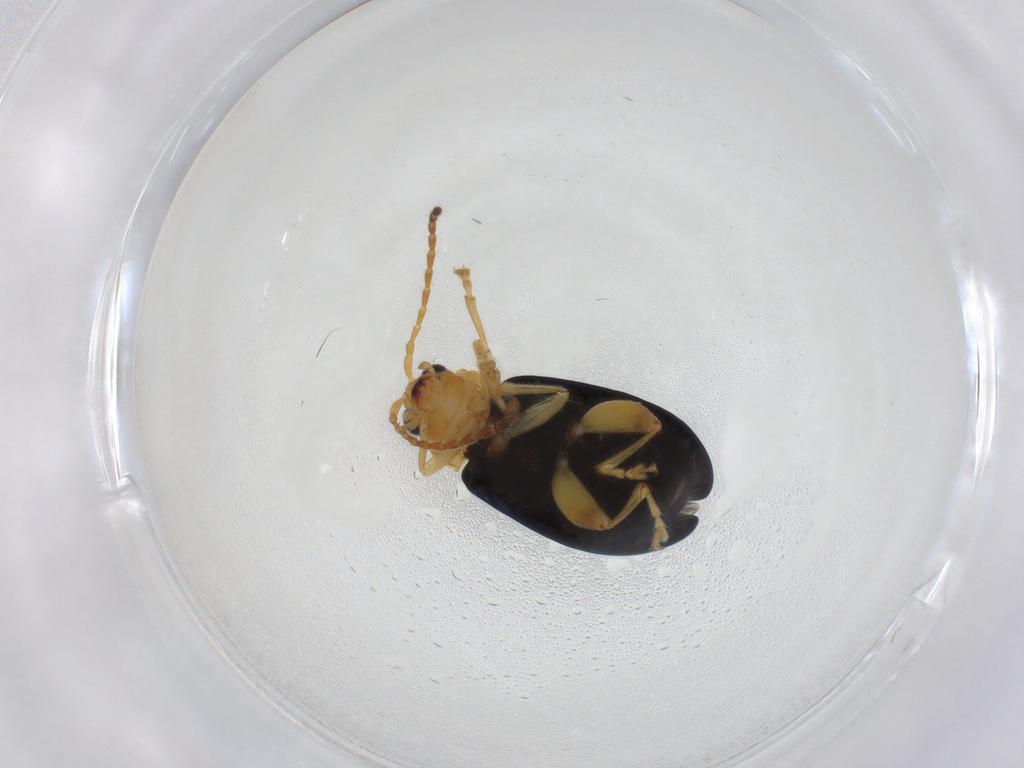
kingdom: Animalia
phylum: Arthropoda
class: Insecta
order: Coleoptera
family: Chrysomelidae
